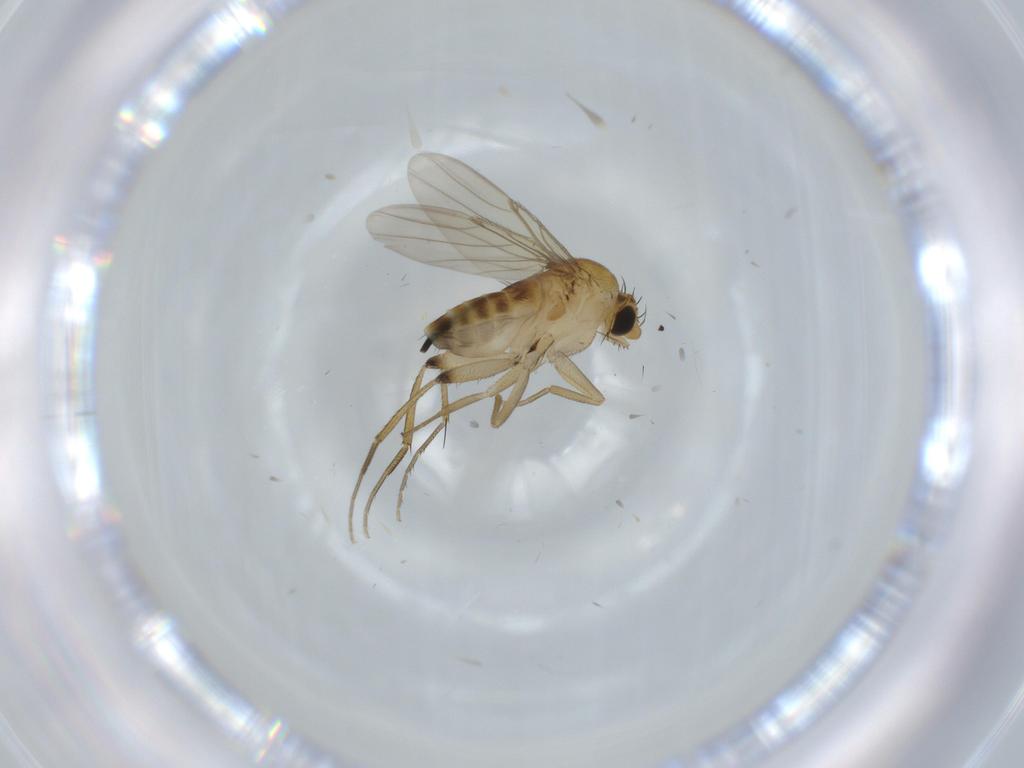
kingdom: Animalia
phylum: Arthropoda
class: Insecta
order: Diptera
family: Phoridae
